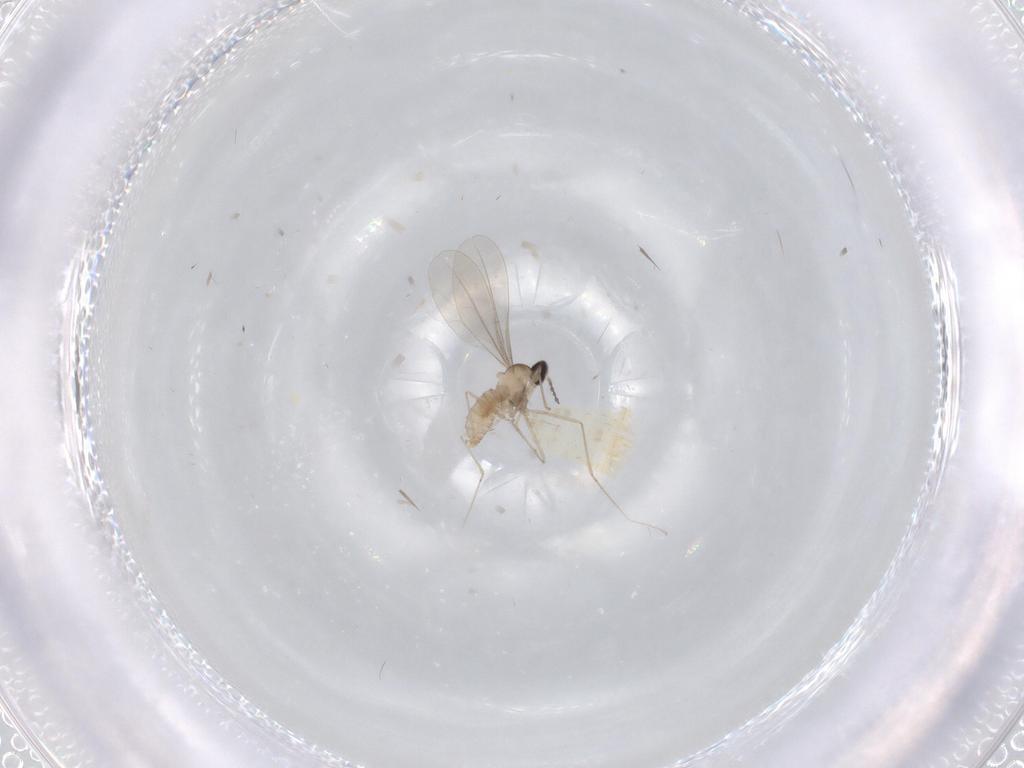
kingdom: Animalia
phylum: Arthropoda
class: Insecta
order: Diptera
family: Cecidomyiidae
